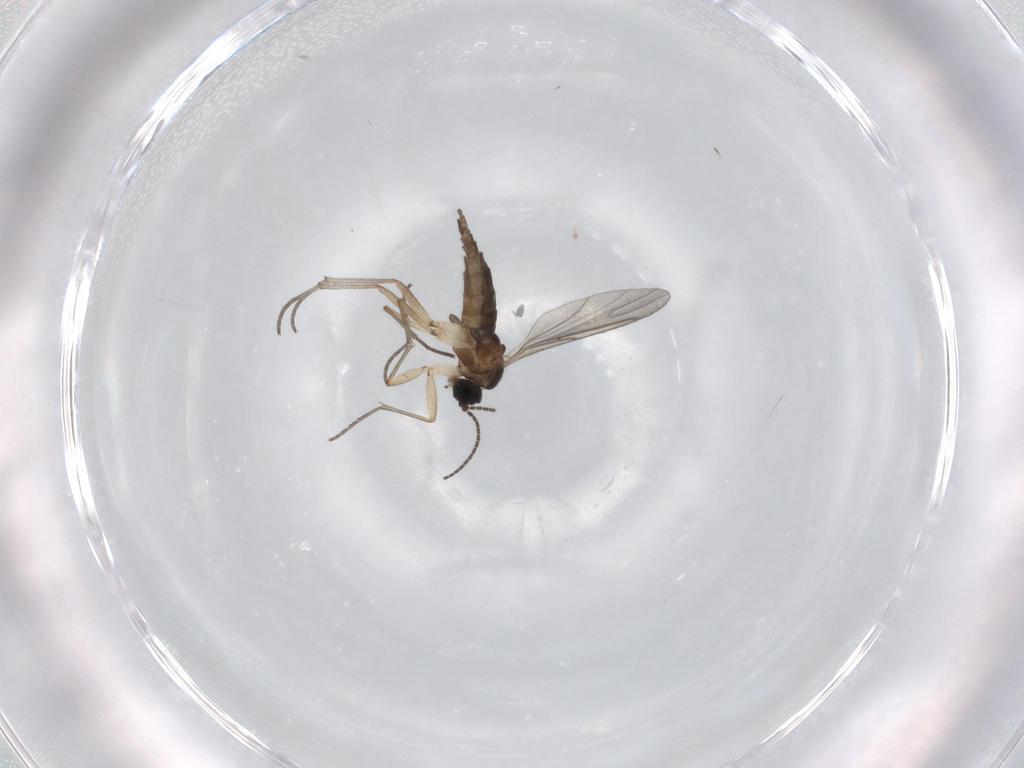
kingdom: Animalia
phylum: Arthropoda
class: Insecta
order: Diptera
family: Sciaridae
